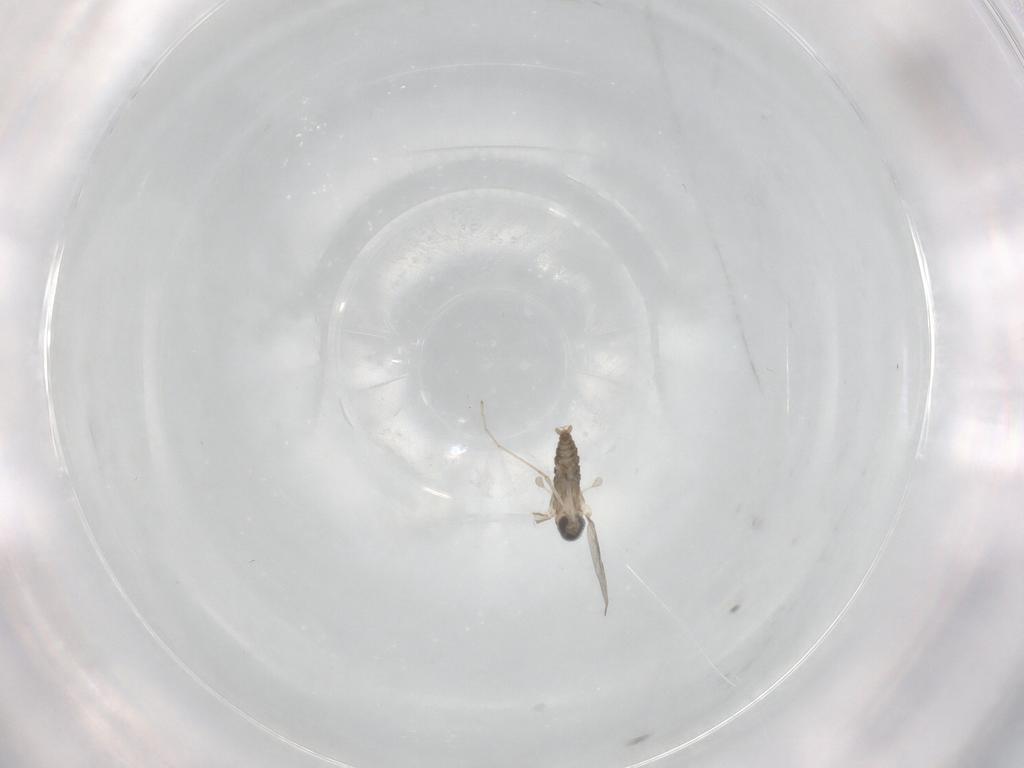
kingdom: Animalia
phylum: Arthropoda
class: Insecta
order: Diptera
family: Cecidomyiidae
